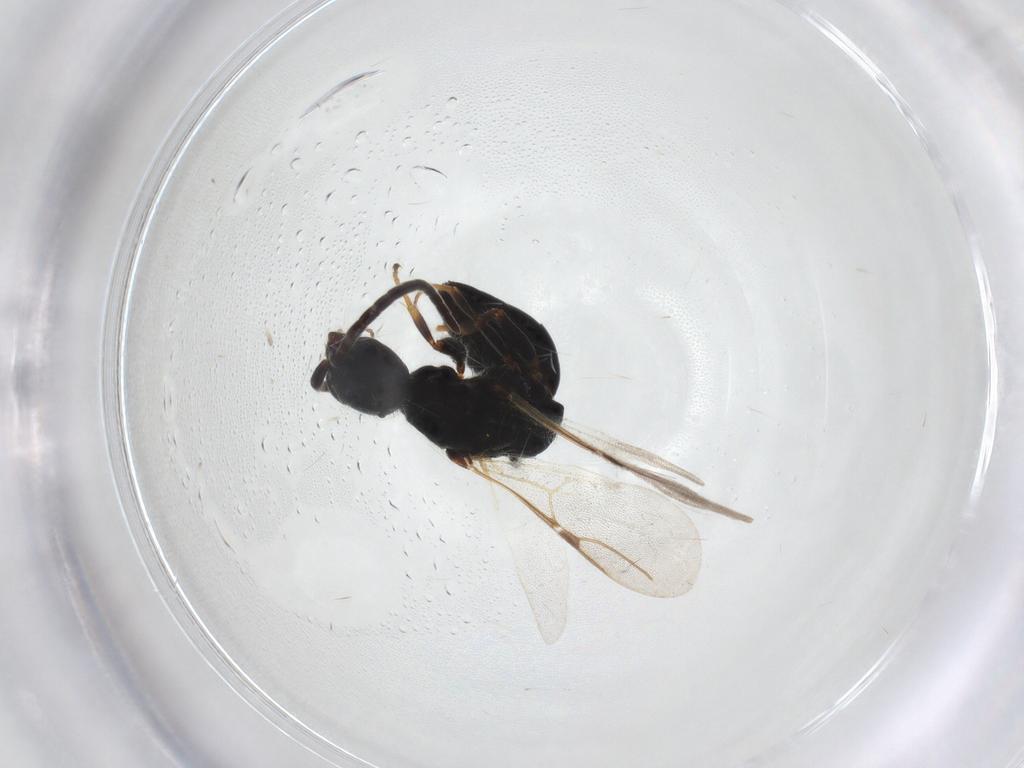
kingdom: Animalia
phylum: Arthropoda
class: Insecta
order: Hymenoptera
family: Bethylidae
